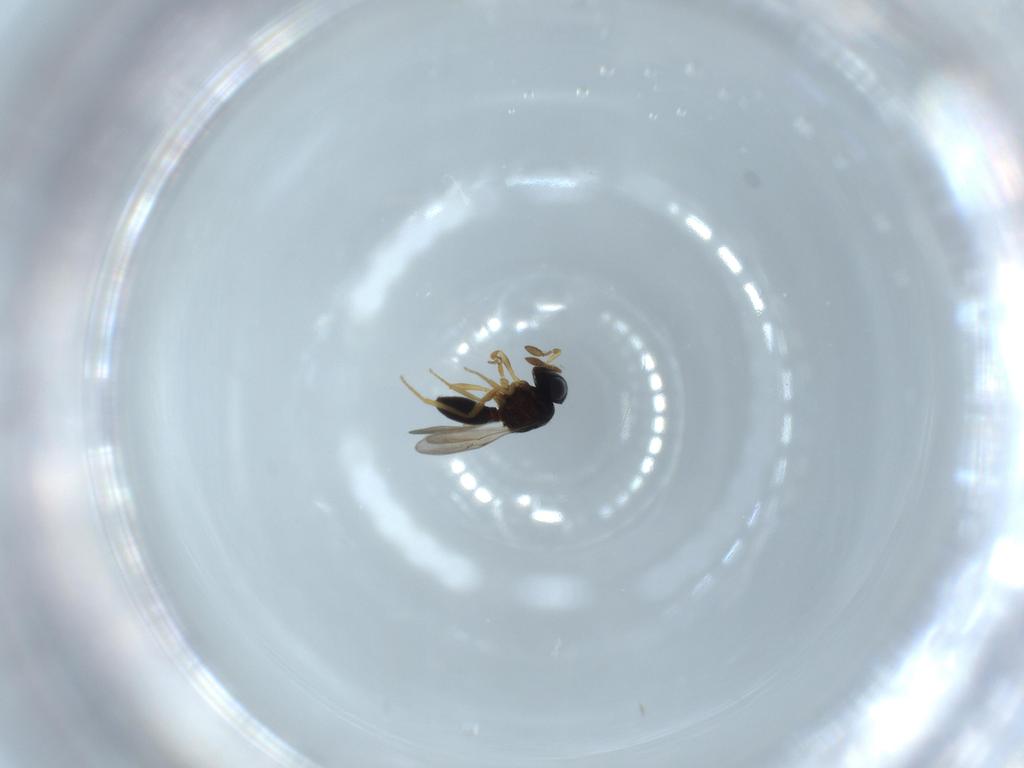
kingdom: Animalia
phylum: Arthropoda
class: Insecta
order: Hymenoptera
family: Scelionidae
